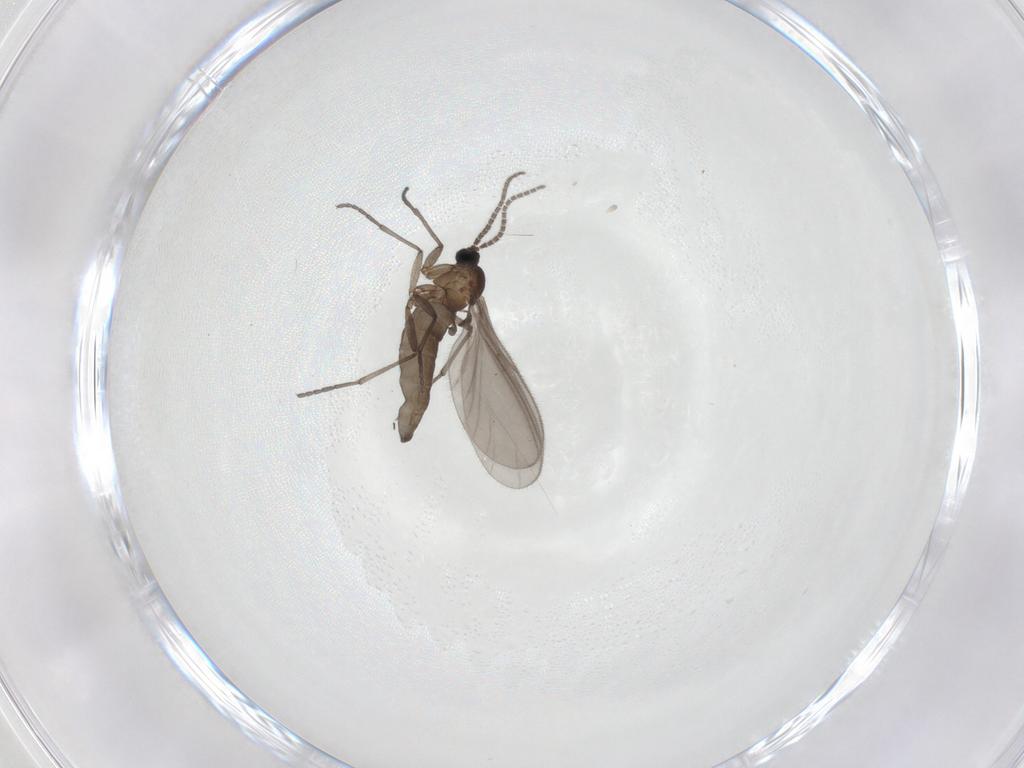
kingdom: Animalia
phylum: Arthropoda
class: Insecta
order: Diptera
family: Sciaridae
